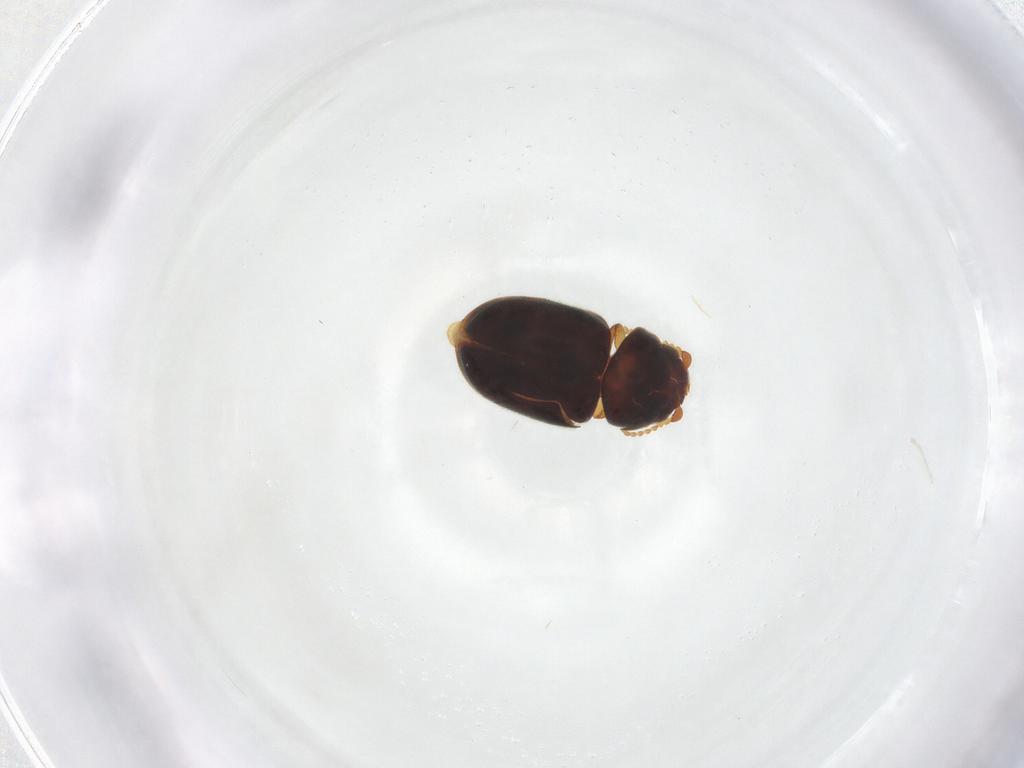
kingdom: Animalia
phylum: Arthropoda
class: Insecta
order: Coleoptera
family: Ptinidae
